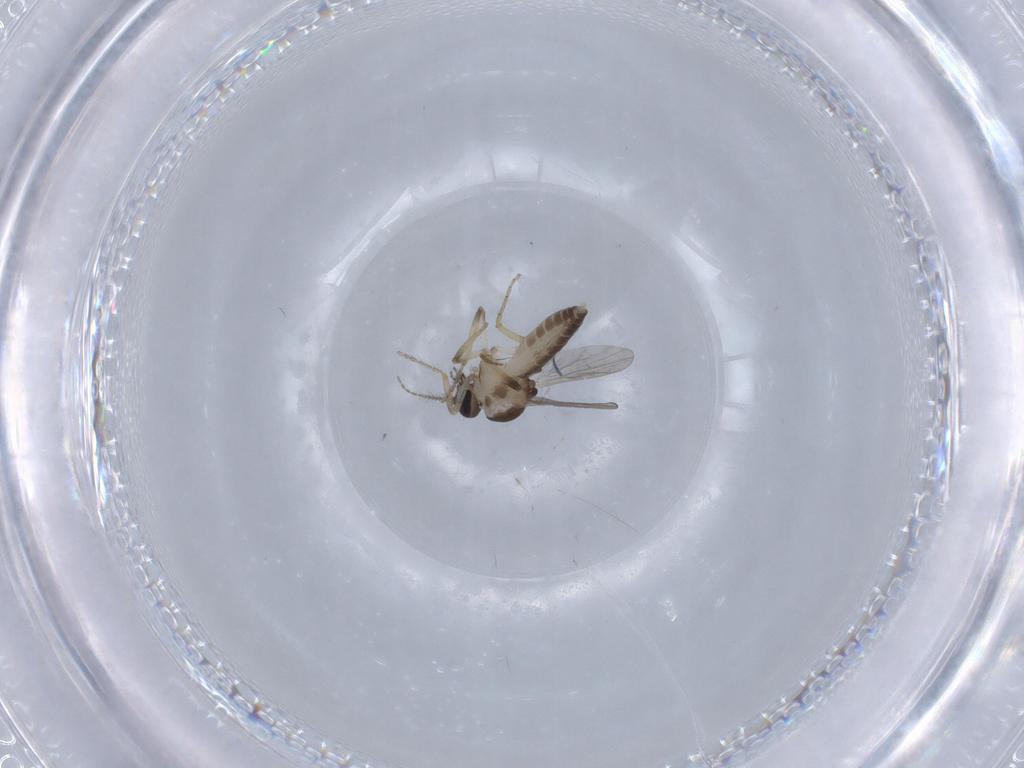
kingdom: Animalia
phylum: Arthropoda
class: Insecta
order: Diptera
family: Ceratopogonidae
